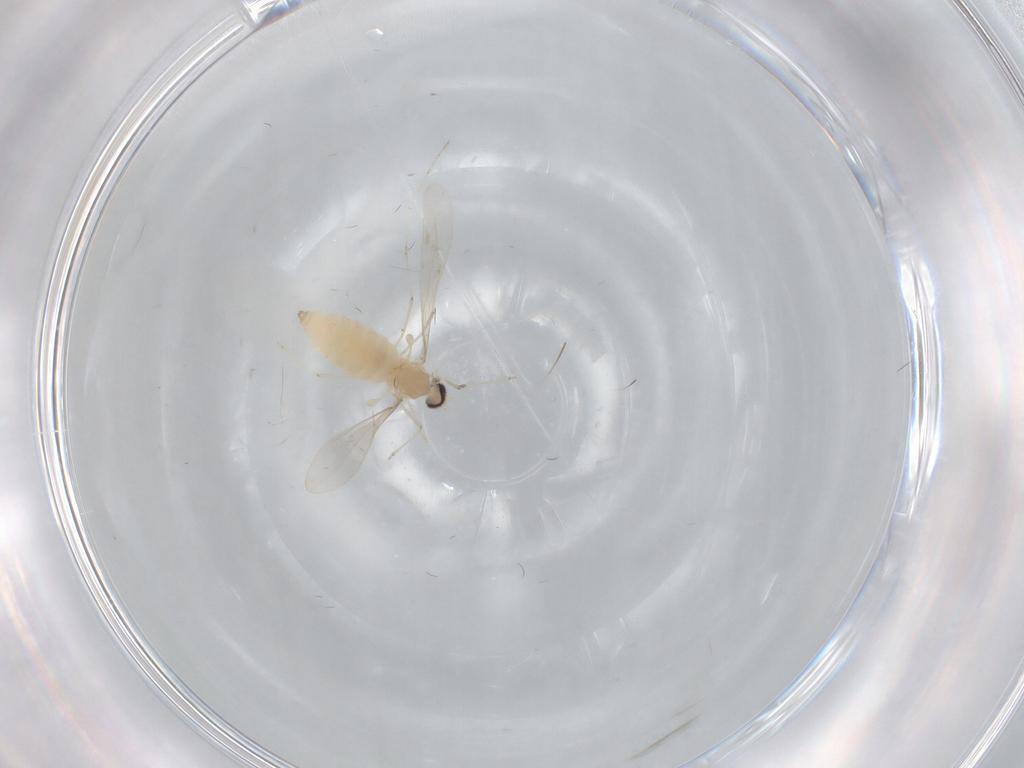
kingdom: Animalia
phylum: Arthropoda
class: Insecta
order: Diptera
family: Cecidomyiidae
